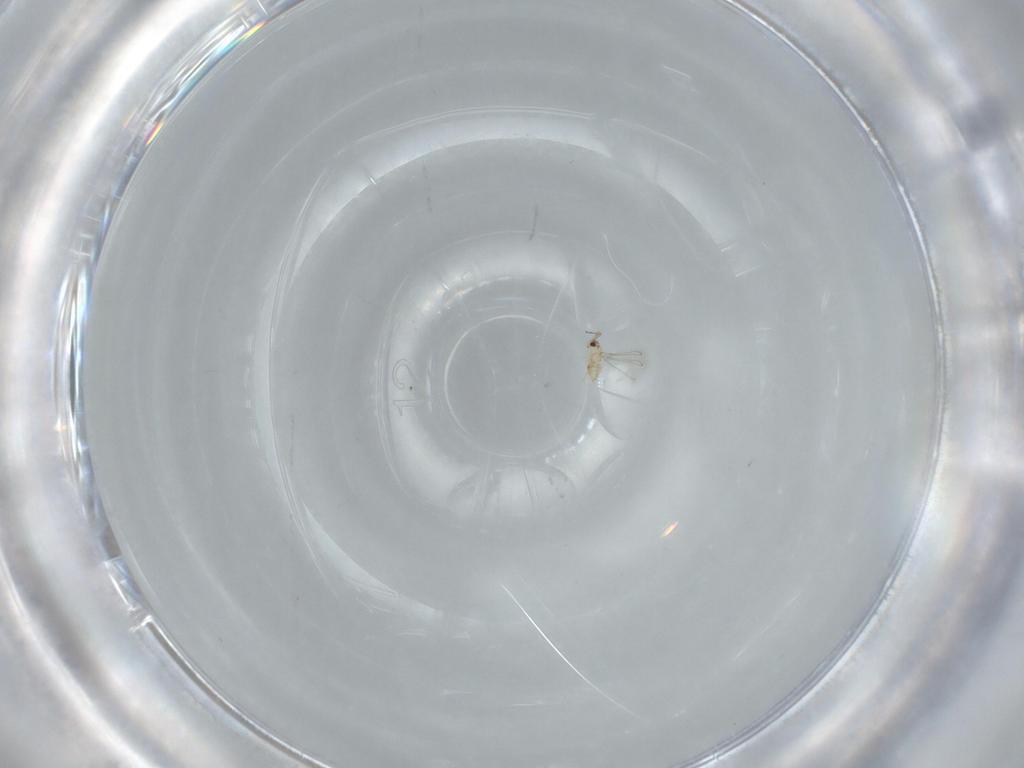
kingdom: Animalia
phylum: Arthropoda
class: Insecta
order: Hymenoptera
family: Mymaridae
